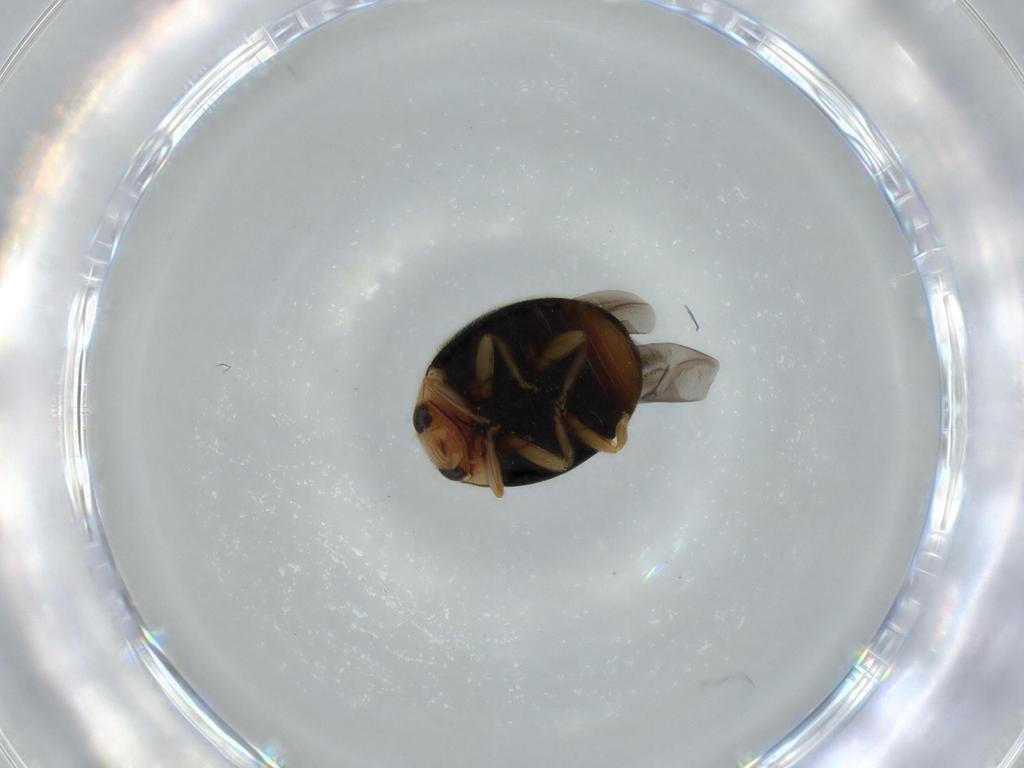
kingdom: Animalia
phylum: Arthropoda
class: Insecta
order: Coleoptera
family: Coccinellidae
